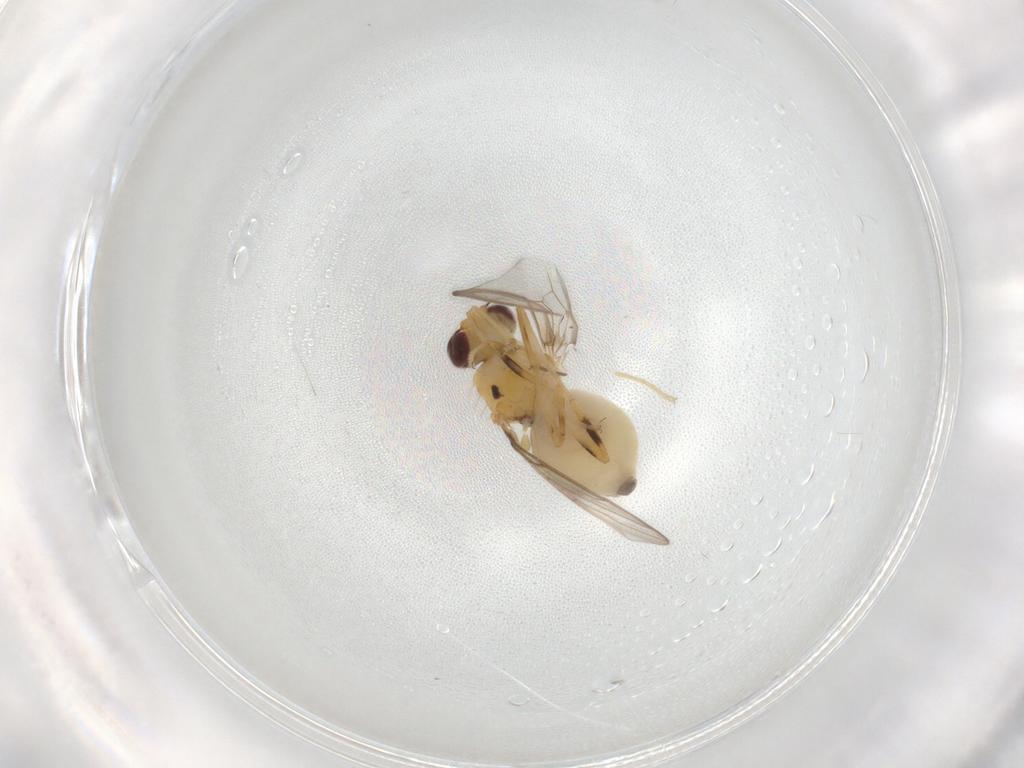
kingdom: Animalia
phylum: Arthropoda
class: Insecta
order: Diptera
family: Chloropidae
